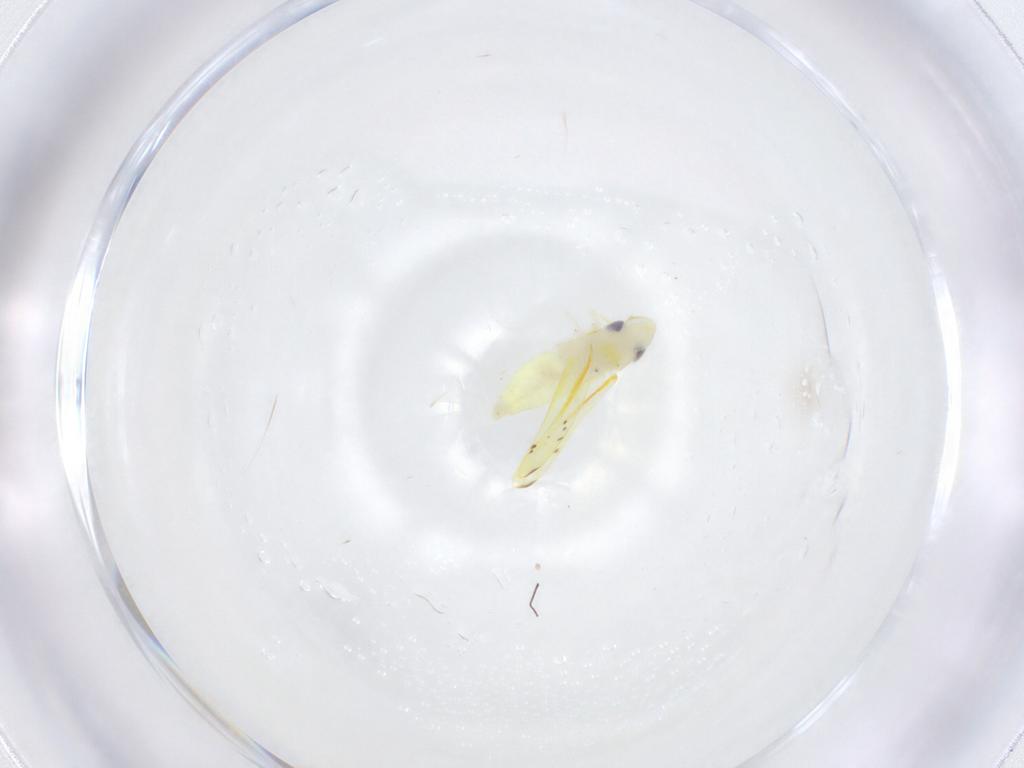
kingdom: Animalia
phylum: Arthropoda
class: Insecta
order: Hemiptera
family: Cicadellidae
